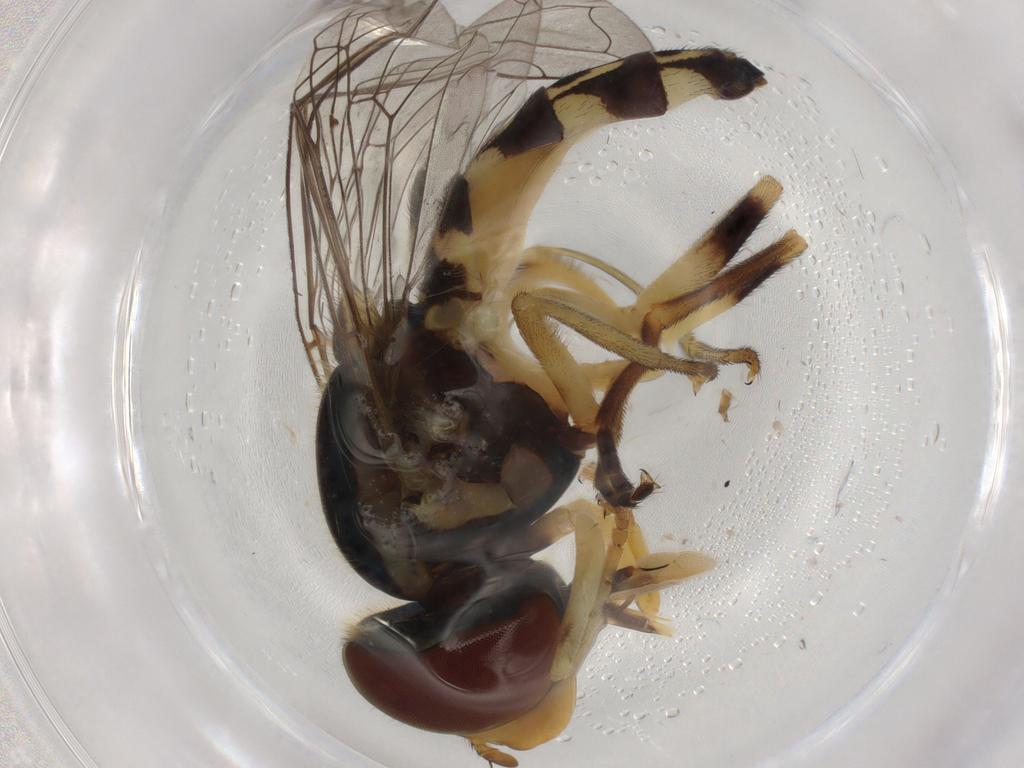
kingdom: Animalia
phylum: Arthropoda
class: Insecta
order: Diptera
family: Syrphidae
